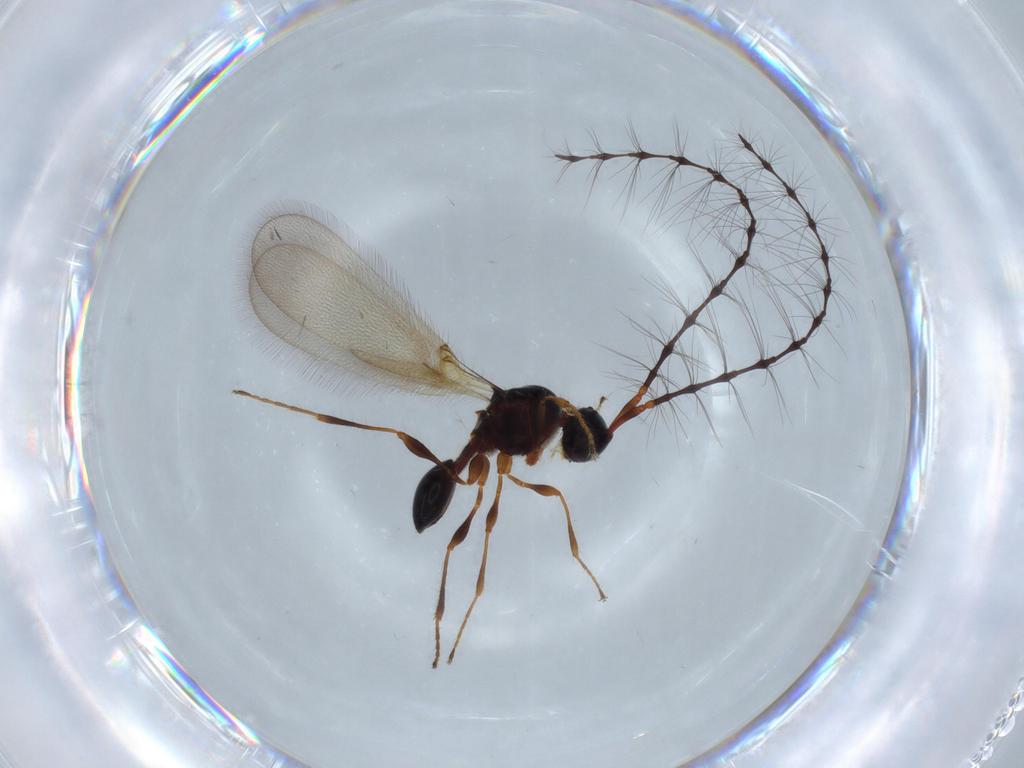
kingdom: Animalia
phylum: Arthropoda
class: Insecta
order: Hymenoptera
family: Diapriidae
